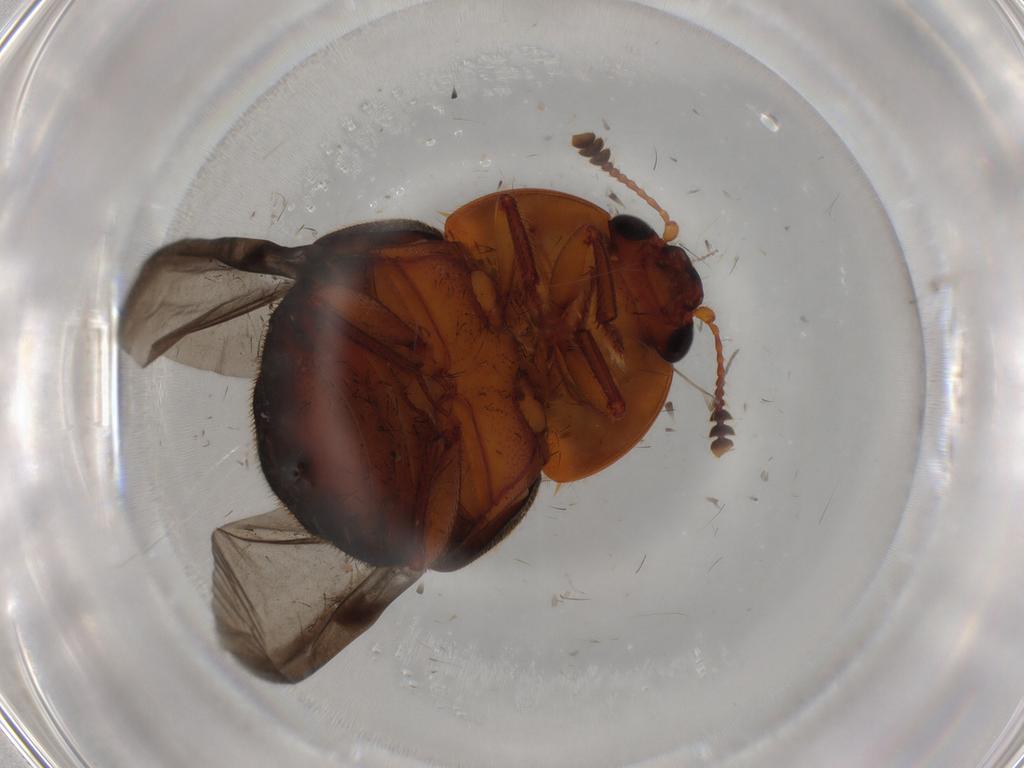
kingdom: Animalia
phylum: Arthropoda
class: Insecta
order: Coleoptera
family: Nitidulidae
